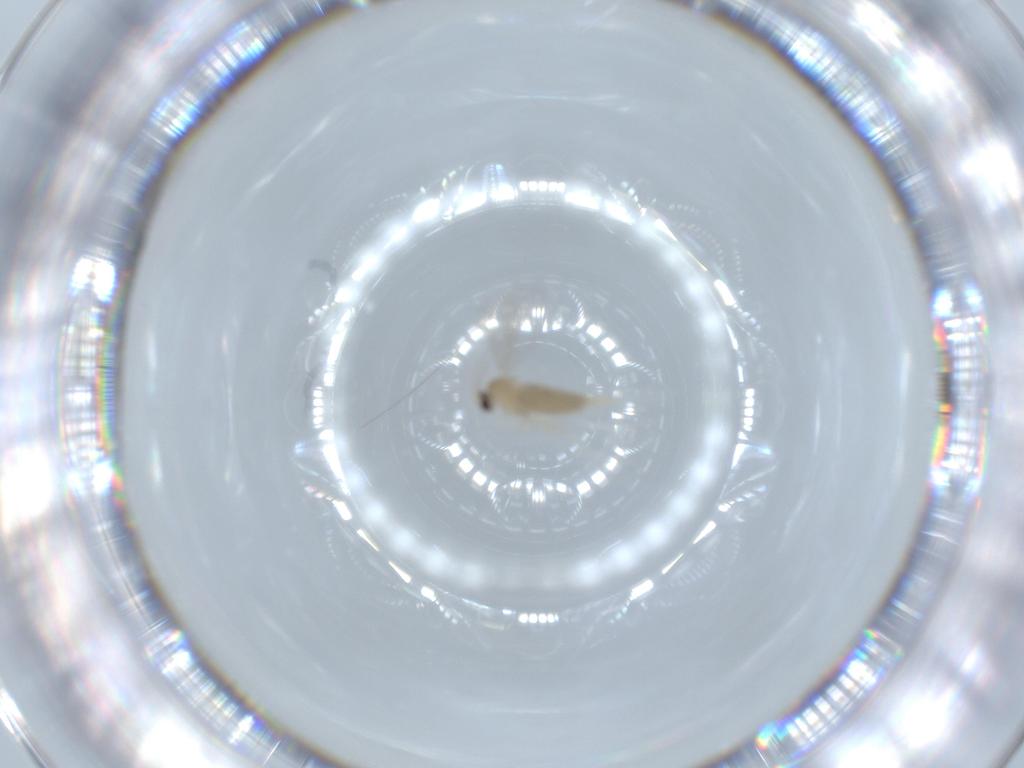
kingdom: Animalia
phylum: Arthropoda
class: Insecta
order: Diptera
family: Cecidomyiidae
